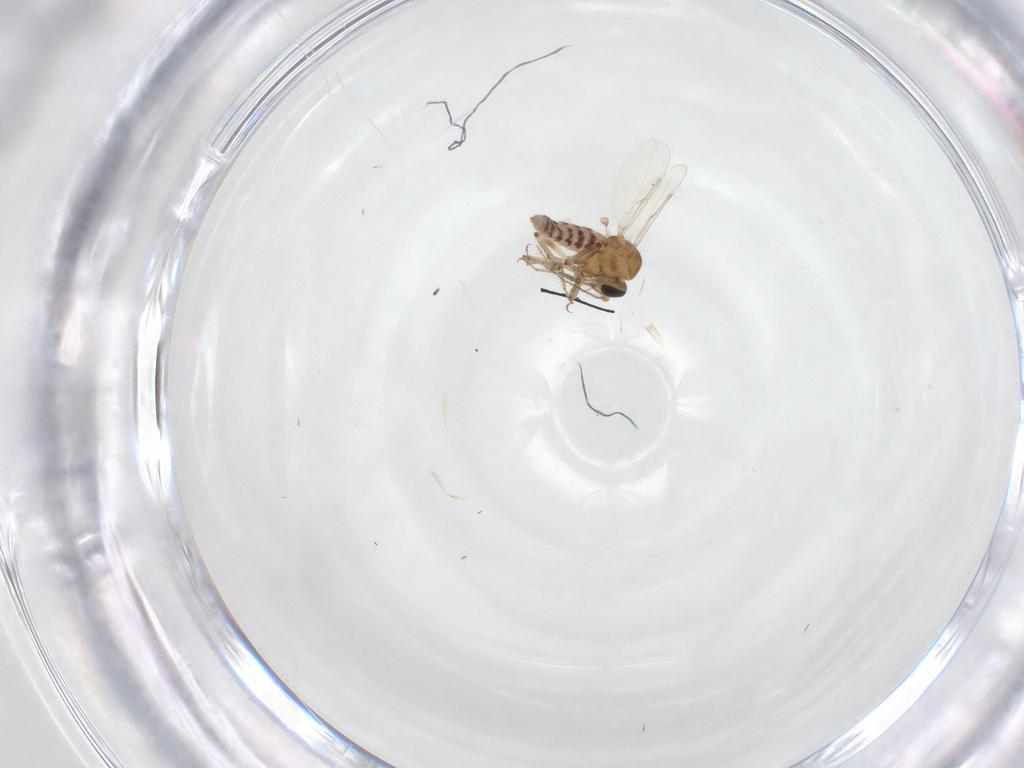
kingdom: Animalia
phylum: Arthropoda
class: Insecta
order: Diptera
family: Ceratopogonidae
